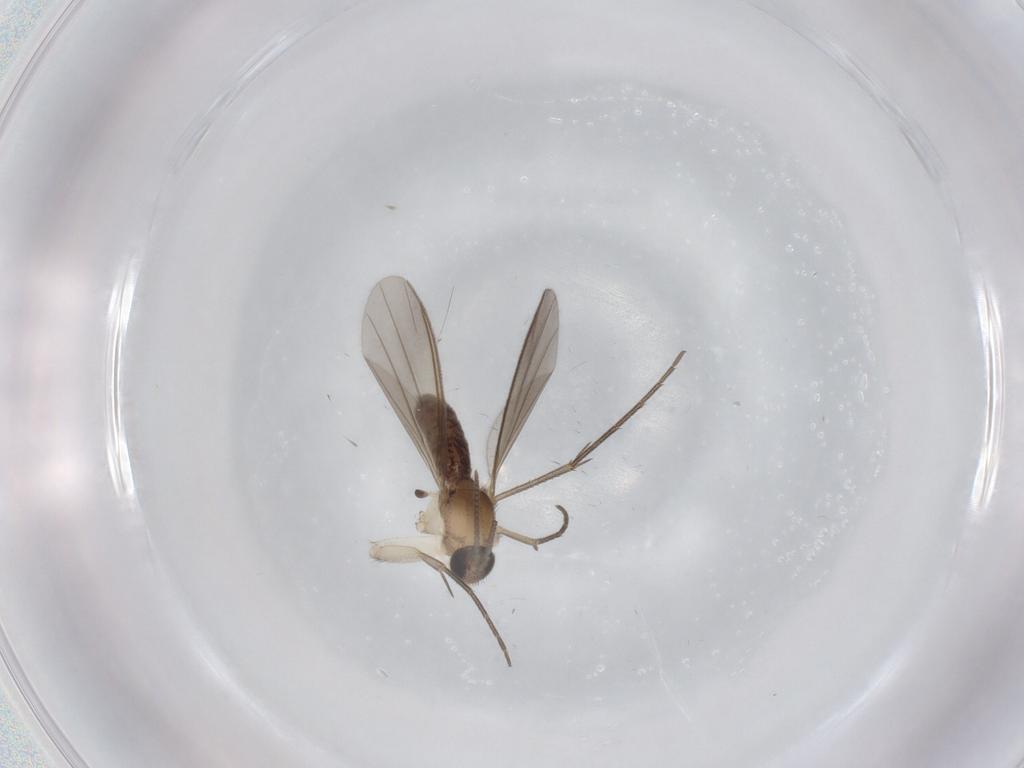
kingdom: Animalia
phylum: Arthropoda
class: Insecta
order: Diptera
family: Mycetophilidae
